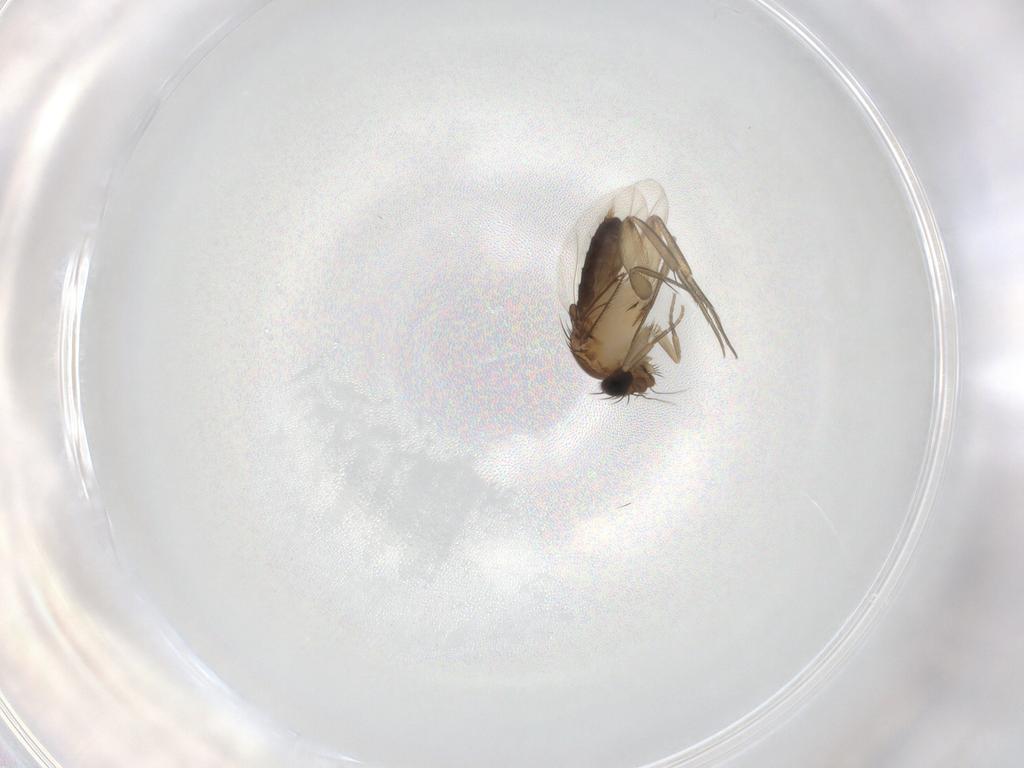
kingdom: Animalia
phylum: Arthropoda
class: Insecta
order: Diptera
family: Phoridae
